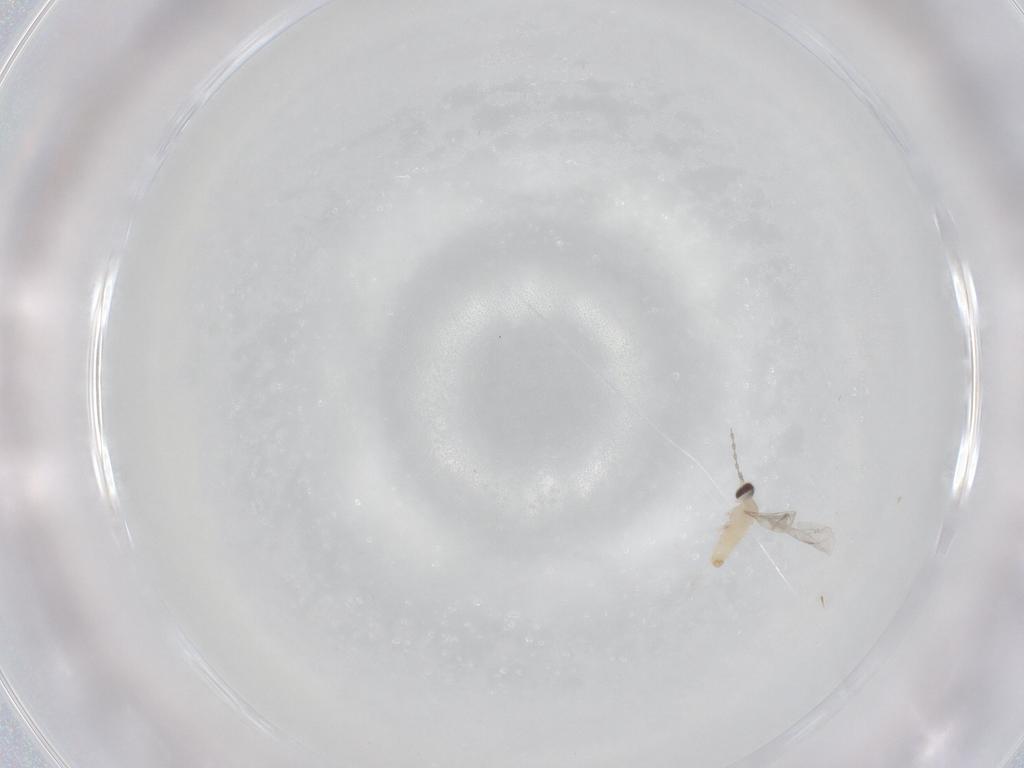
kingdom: Animalia
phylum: Arthropoda
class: Insecta
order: Diptera
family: Cecidomyiidae
